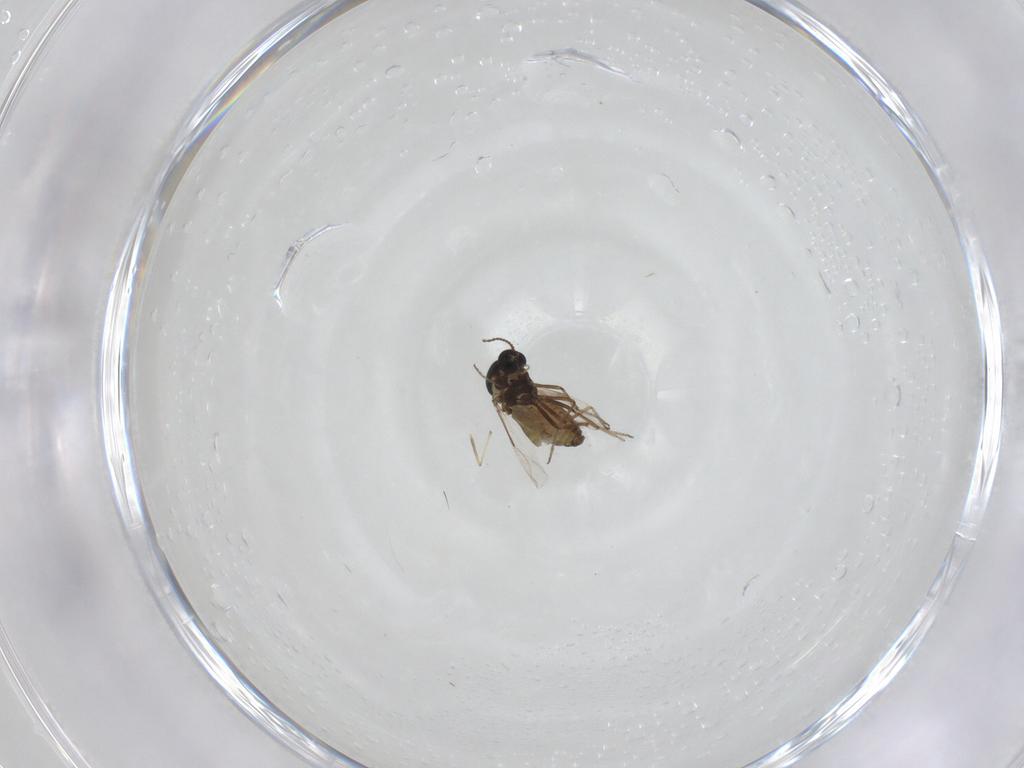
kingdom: Animalia
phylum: Arthropoda
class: Insecta
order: Diptera
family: Ceratopogonidae
